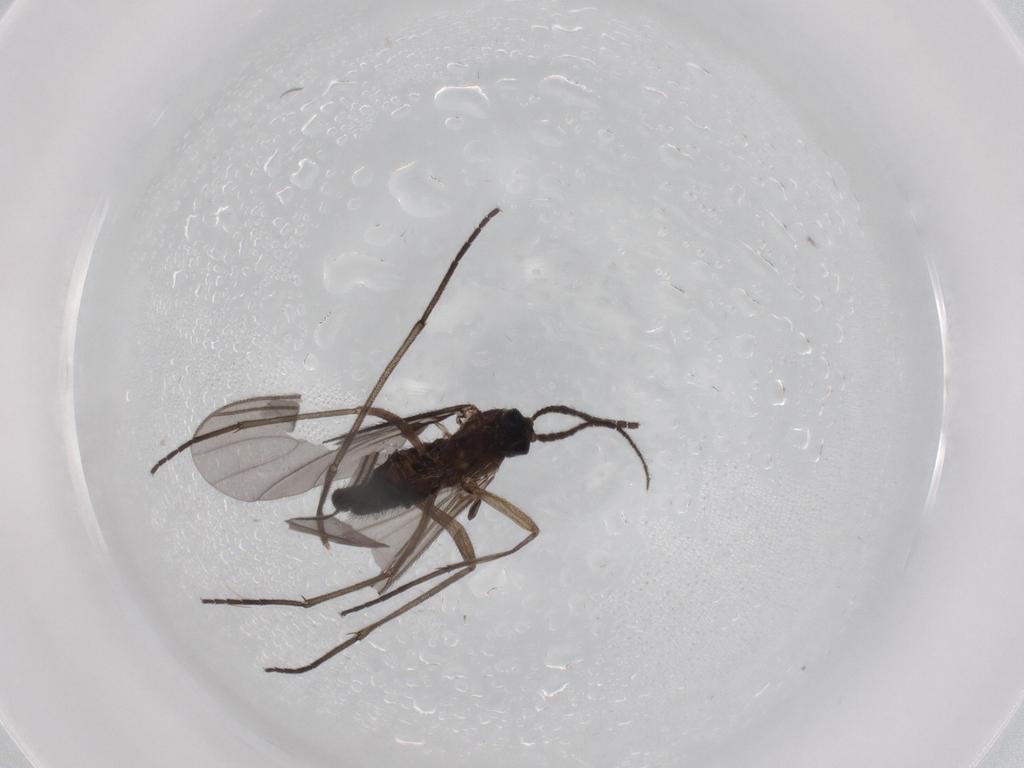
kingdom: Animalia
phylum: Arthropoda
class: Insecta
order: Diptera
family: Sciaridae
